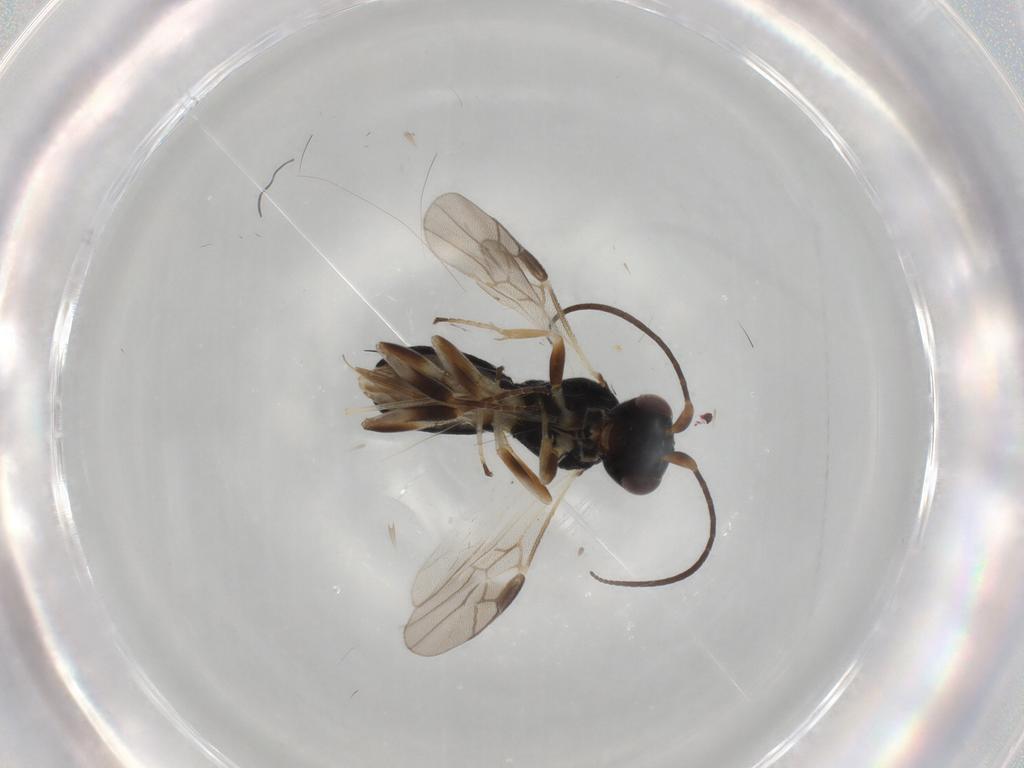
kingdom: Animalia
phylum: Arthropoda
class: Insecta
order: Hymenoptera
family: Braconidae
